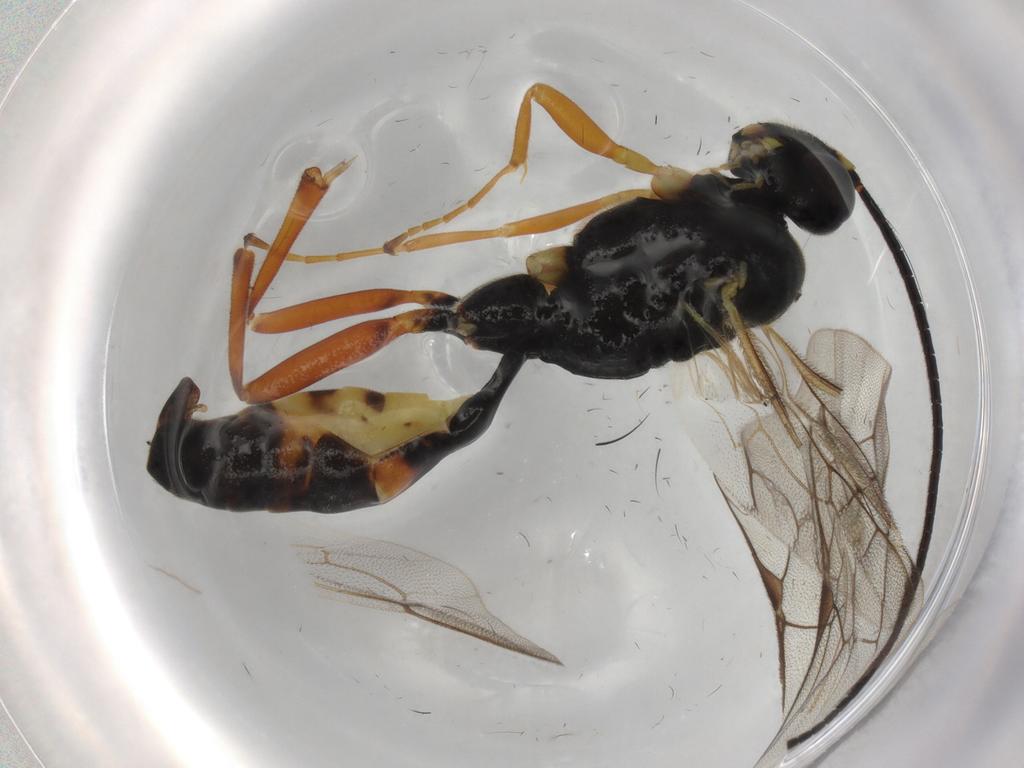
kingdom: Animalia
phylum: Arthropoda
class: Insecta
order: Hymenoptera
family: Ichneumonidae
